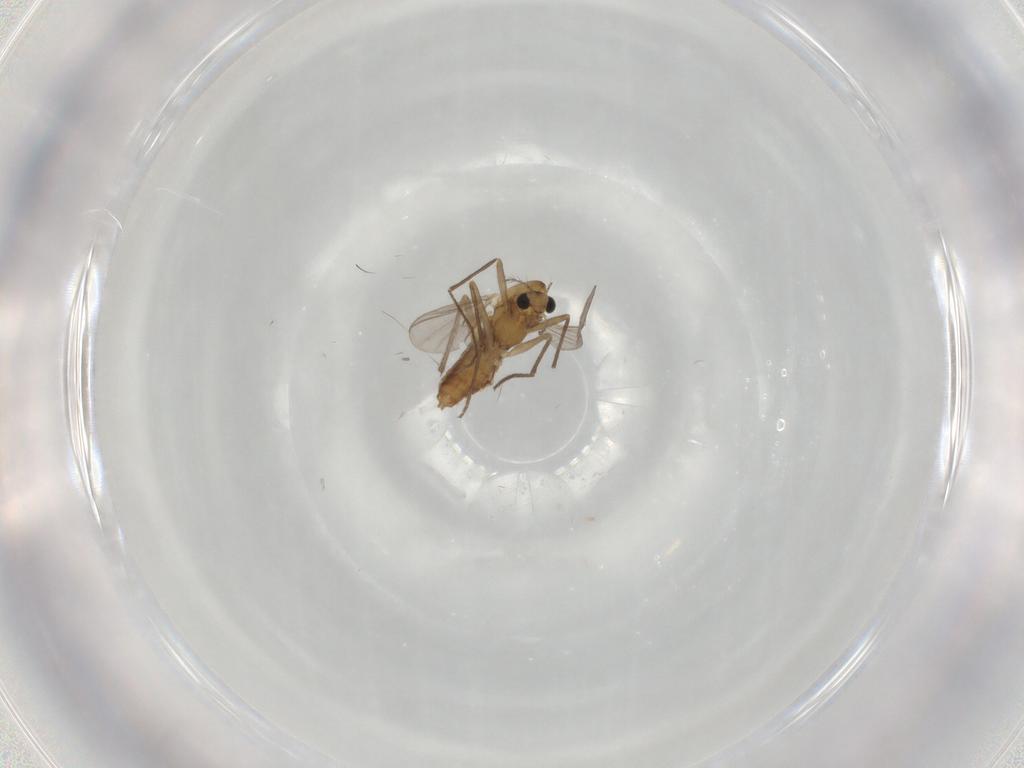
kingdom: Animalia
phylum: Arthropoda
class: Insecta
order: Diptera
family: Chironomidae
